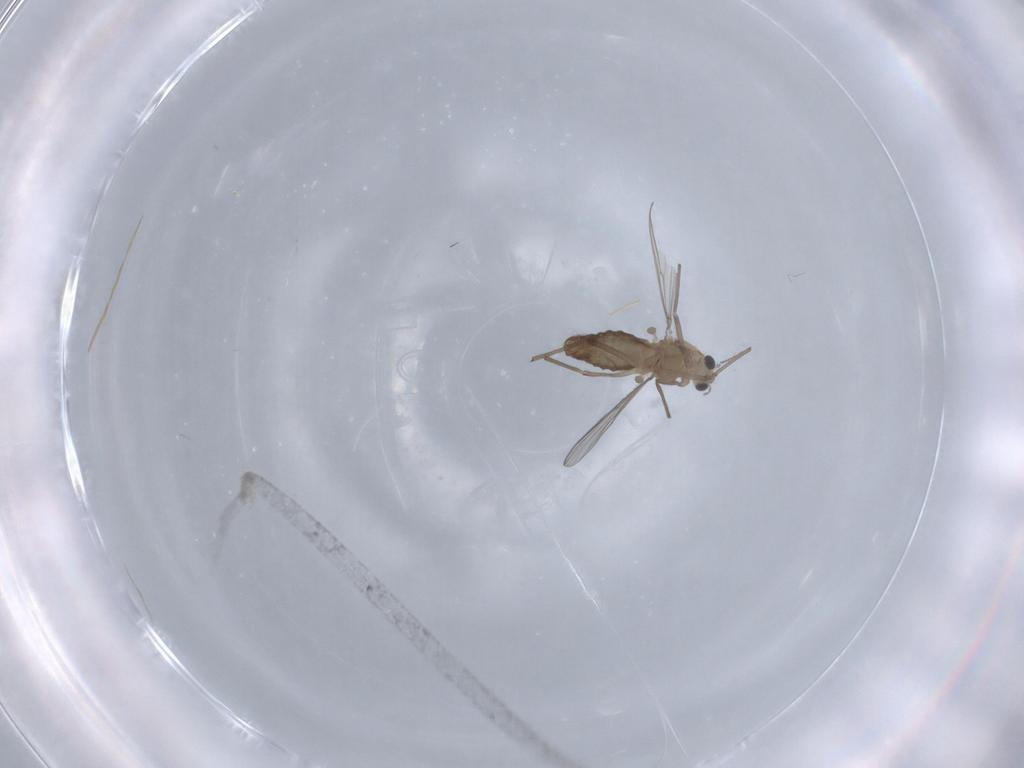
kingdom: Animalia
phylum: Arthropoda
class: Insecta
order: Diptera
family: Chironomidae
